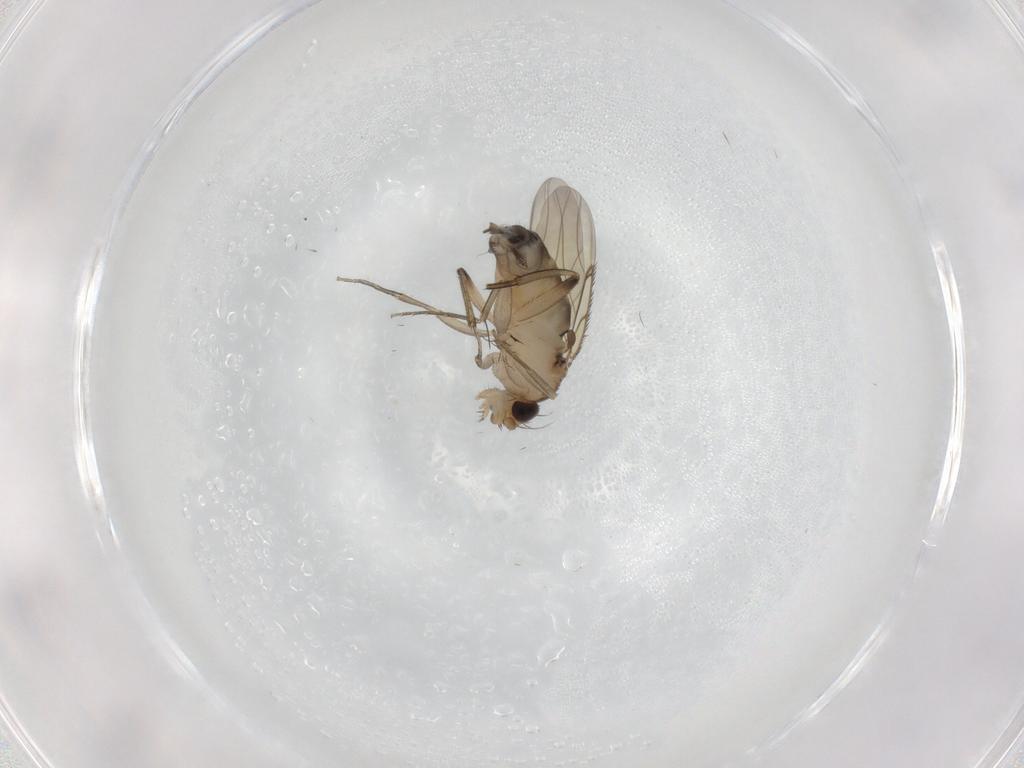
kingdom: Animalia
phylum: Arthropoda
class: Insecta
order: Diptera
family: Phoridae
